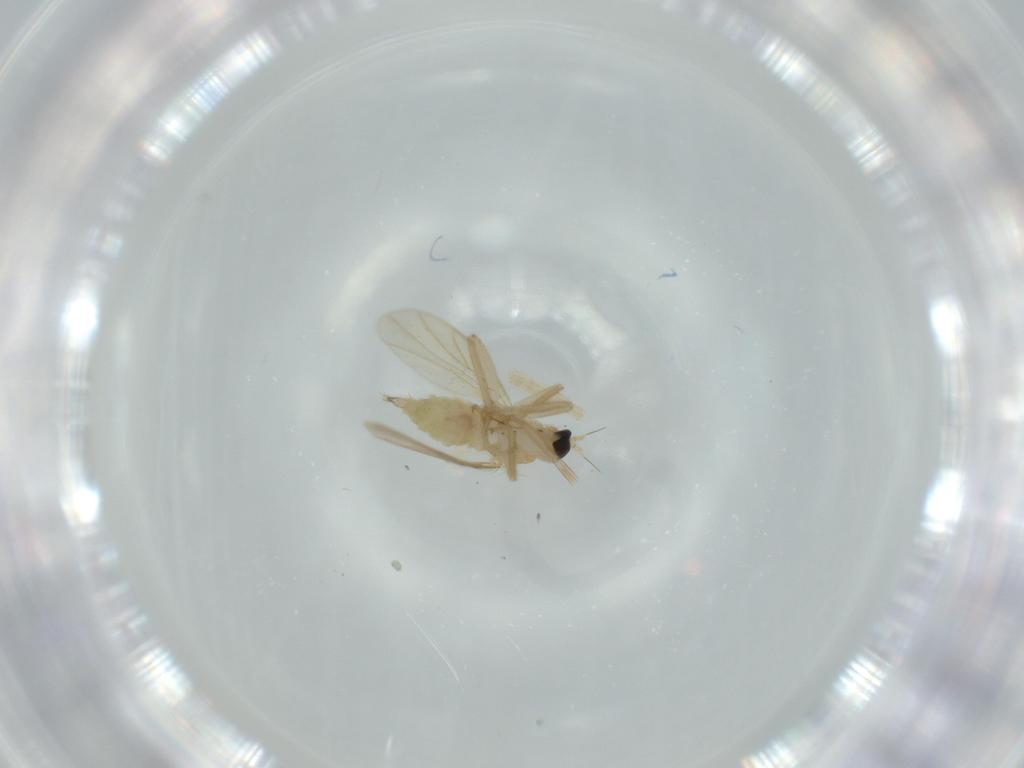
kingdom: Animalia
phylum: Arthropoda
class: Insecta
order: Diptera
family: Hybotidae
